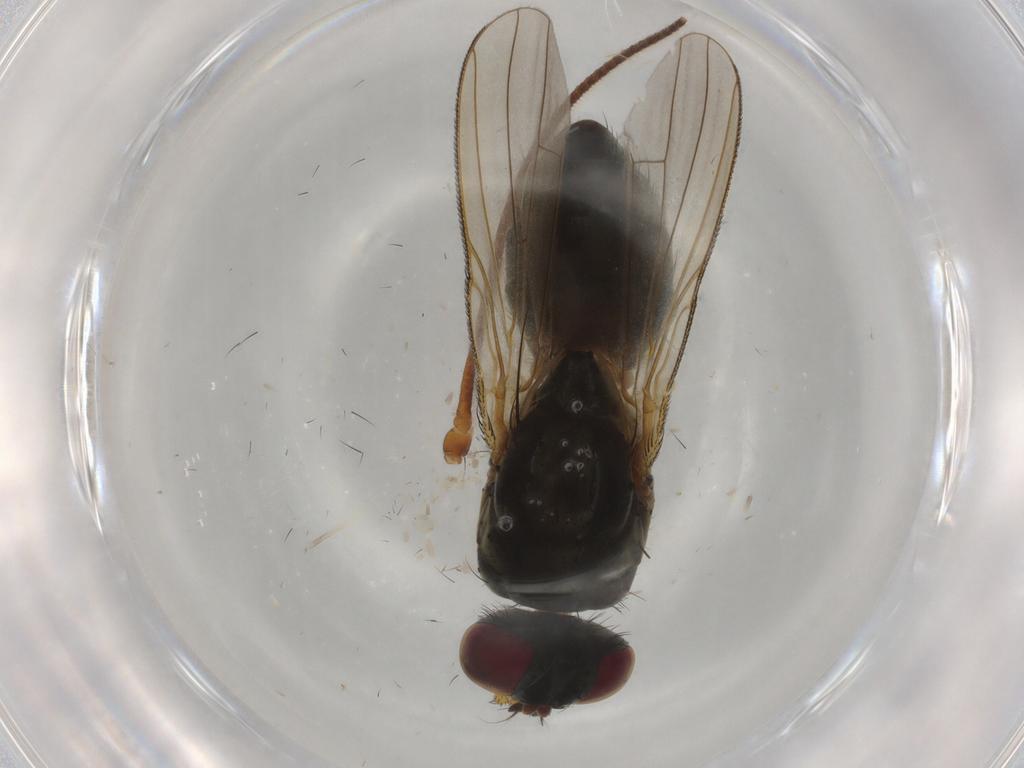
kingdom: Animalia
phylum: Arthropoda
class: Insecta
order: Diptera
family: Muscidae
